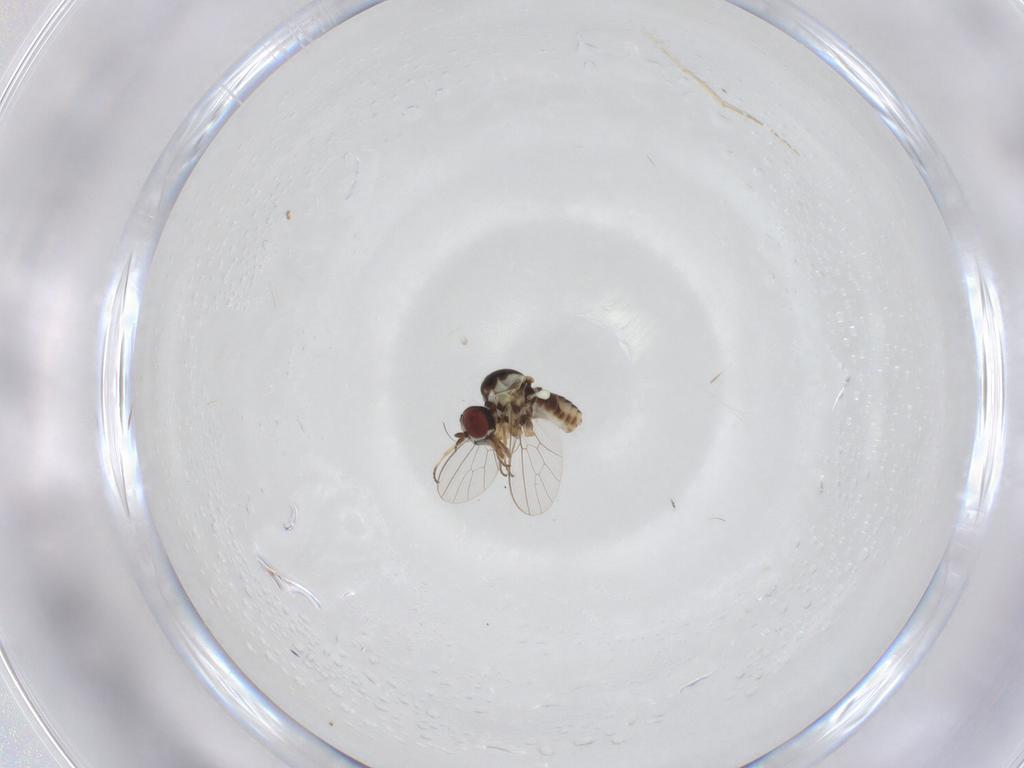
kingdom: Animalia
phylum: Arthropoda
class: Insecta
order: Diptera
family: Mythicomyiidae
